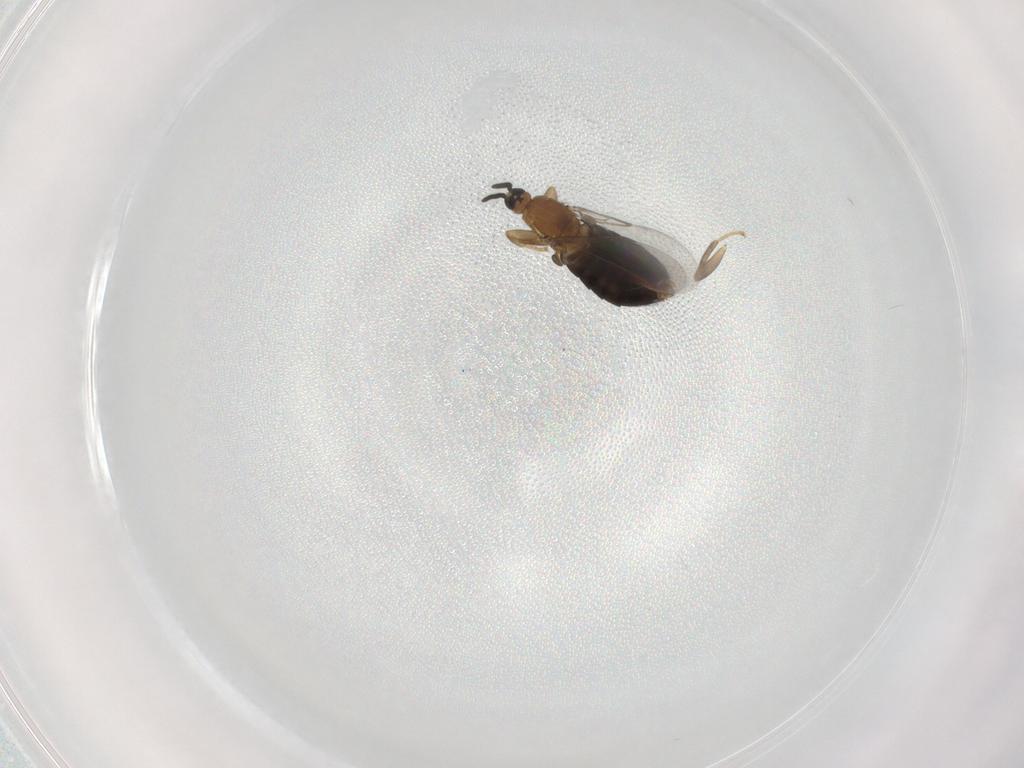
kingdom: Animalia
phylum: Arthropoda
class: Insecta
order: Diptera
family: Scatopsidae
